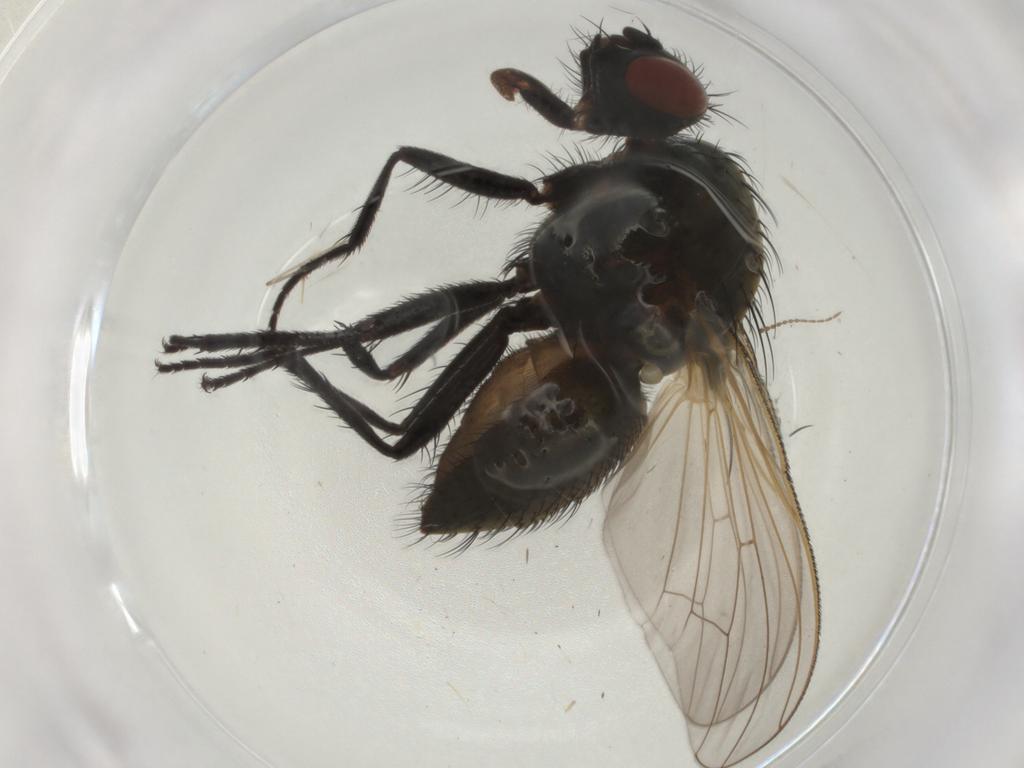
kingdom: Animalia
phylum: Arthropoda
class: Insecta
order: Diptera
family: Anthomyiidae
